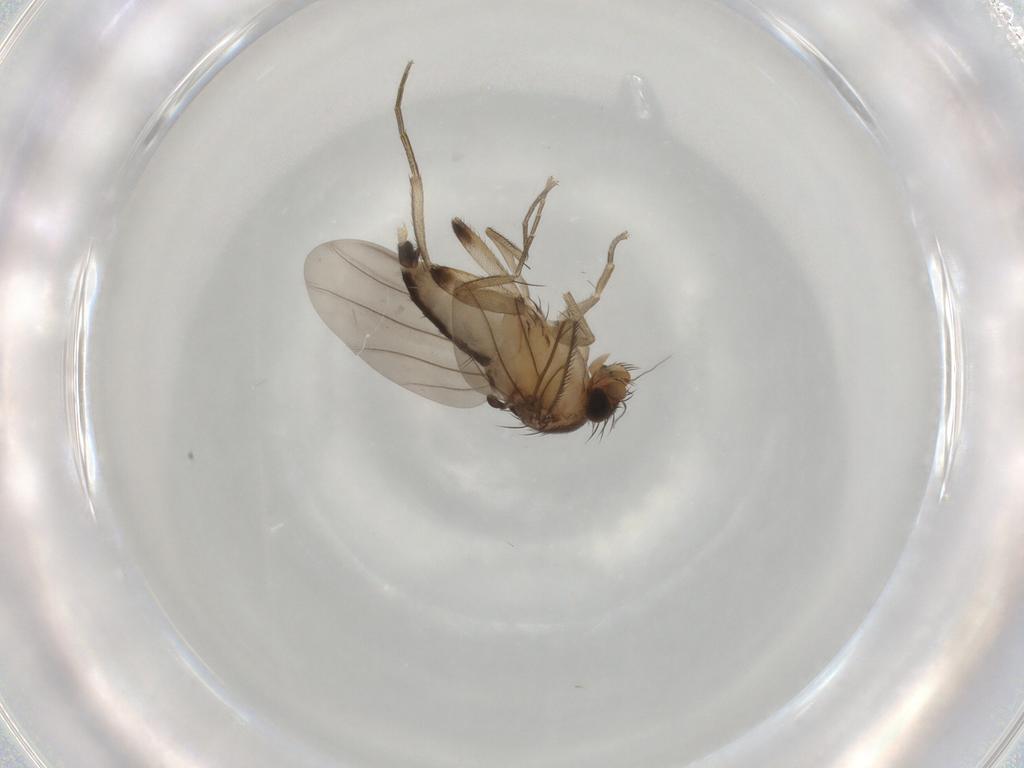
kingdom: Animalia
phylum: Arthropoda
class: Insecta
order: Diptera
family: Phoridae
